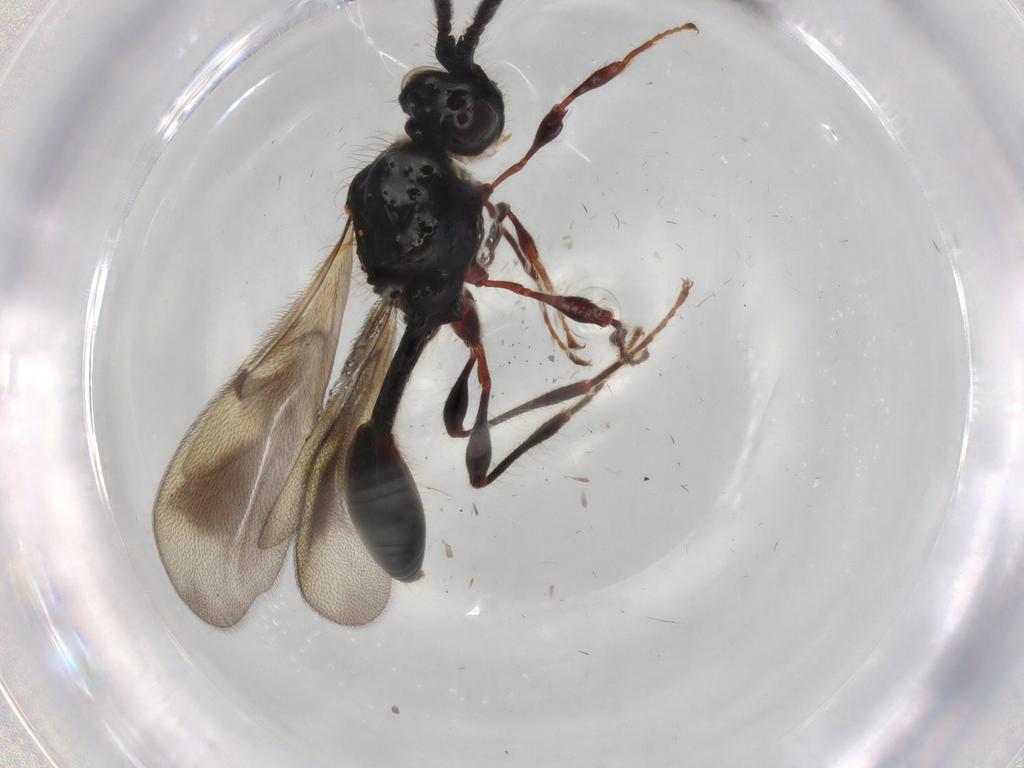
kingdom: Animalia
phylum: Arthropoda
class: Insecta
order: Hymenoptera
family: Diapriidae
